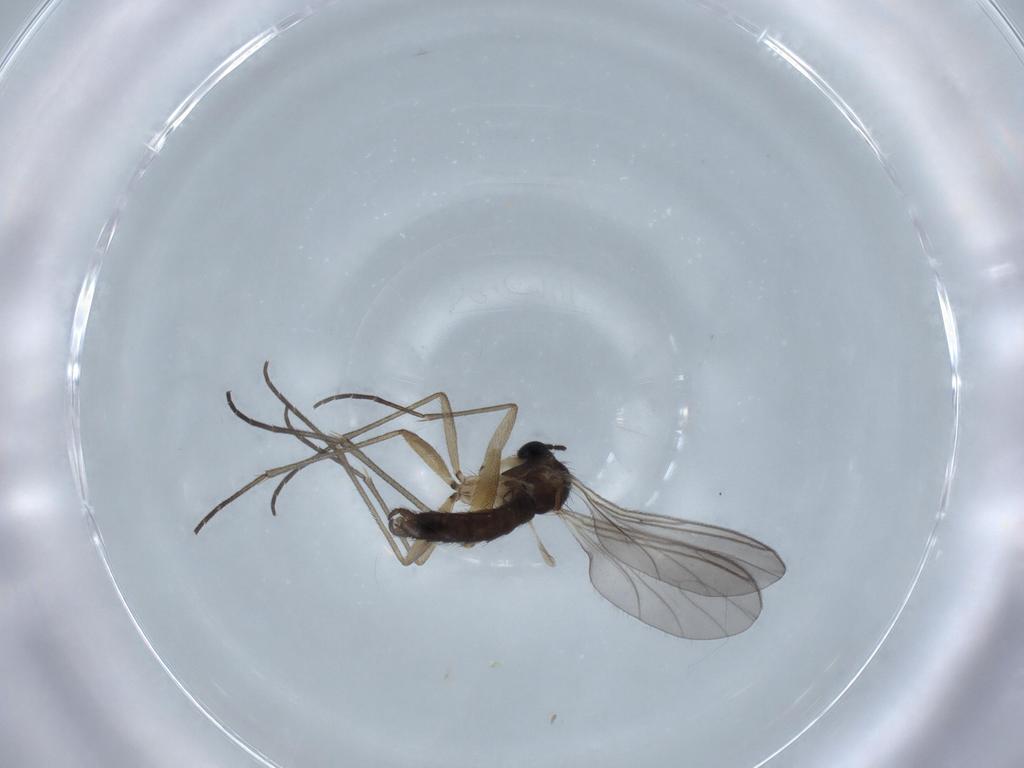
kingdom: Animalia
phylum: Arthropoda
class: Insecta
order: Diptera
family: Sciaridae
